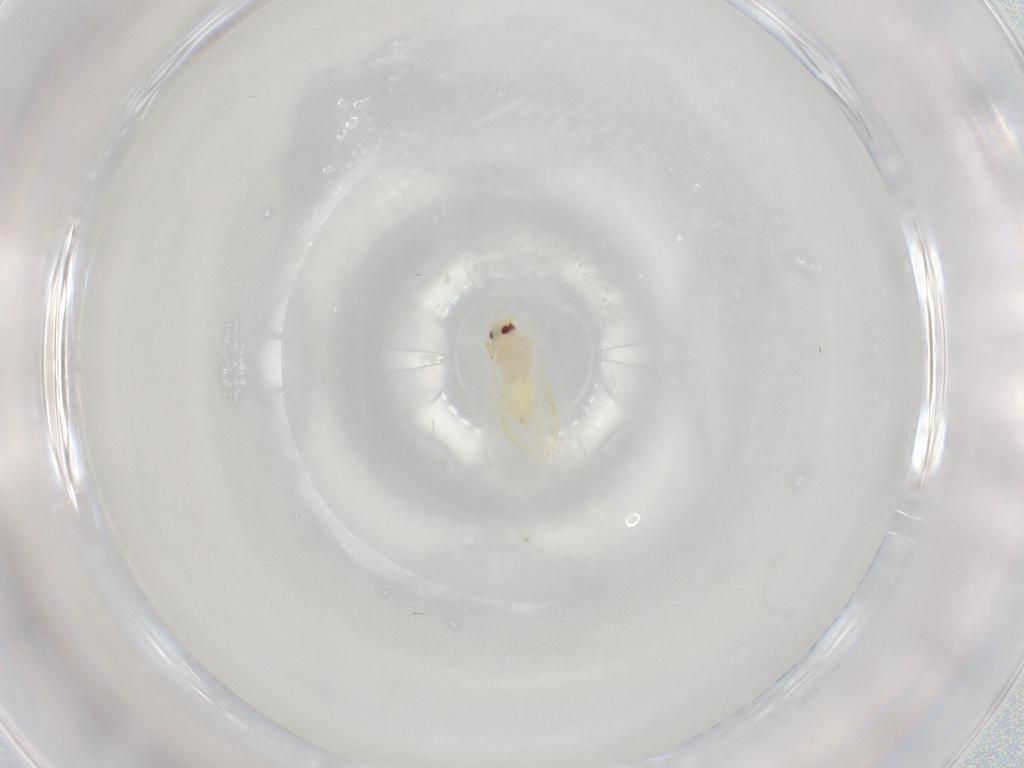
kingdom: Animalia
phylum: Arthropoda
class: Insecta
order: Hemiptera
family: Aleyrodidae
